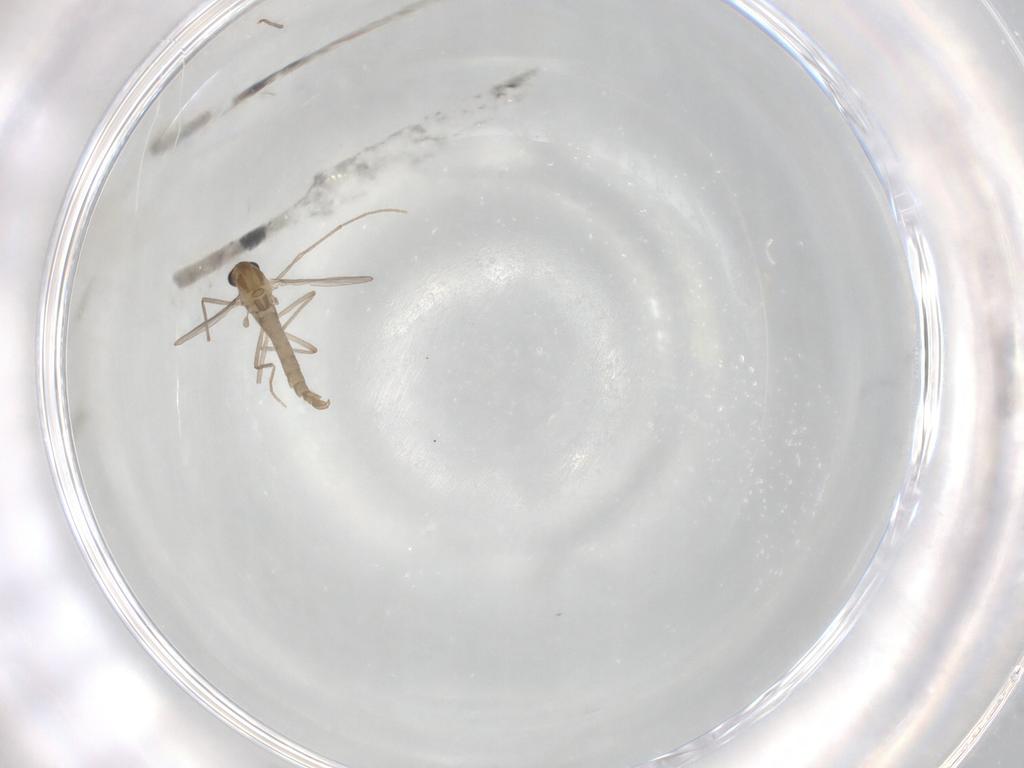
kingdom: Animalia
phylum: Arthropoda
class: Insecta
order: Diptera
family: Chironomidae
